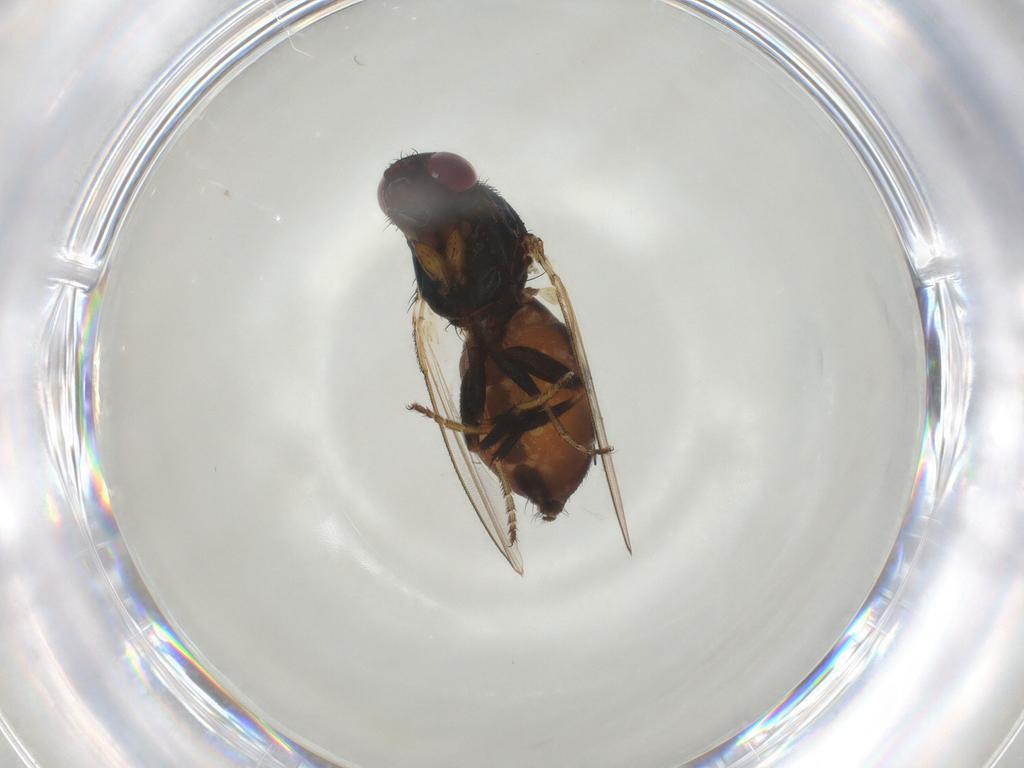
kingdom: Animalia
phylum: Arthropoda
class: Insecta
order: Diptera
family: Milichiidae
